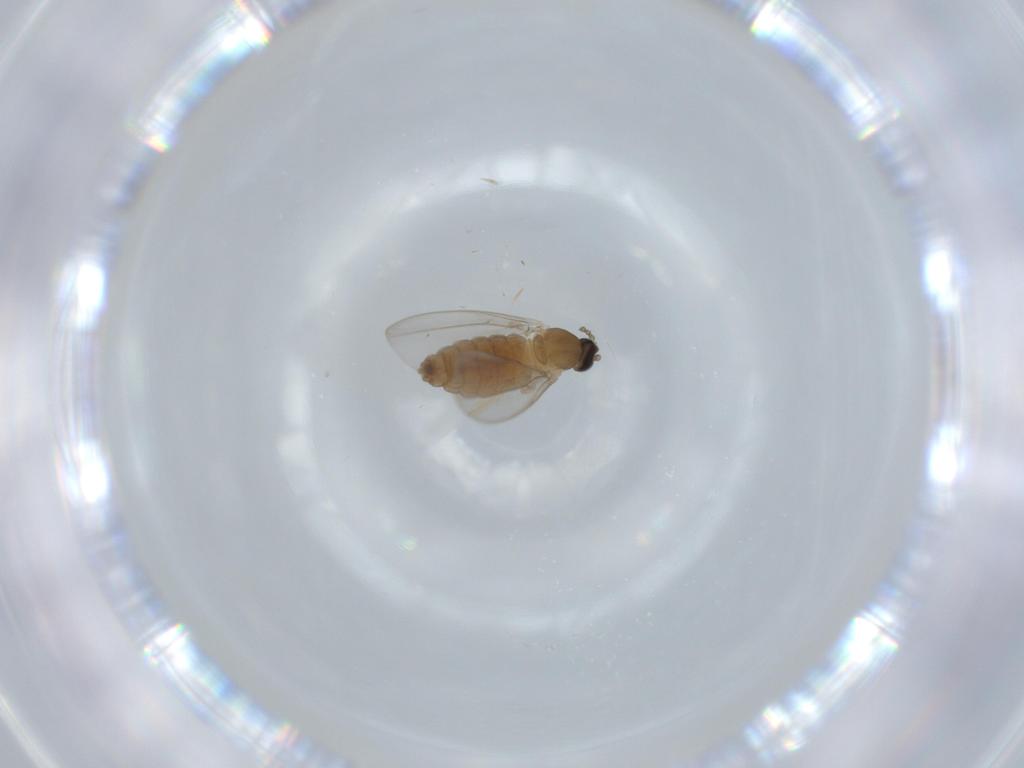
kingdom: Animalia
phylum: Arthropoda
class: Insecta
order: Diptera
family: Cecidomyiidae
